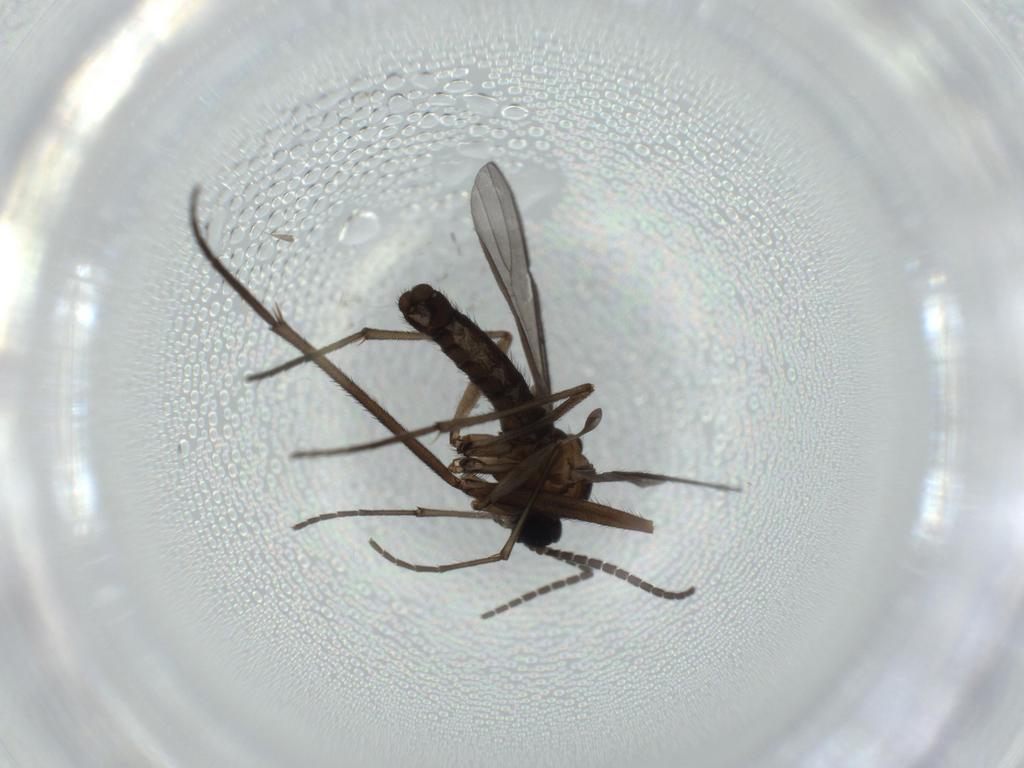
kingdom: Animalia
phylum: Arthropoda
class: Insecta
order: Diptera
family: Sciaridae
